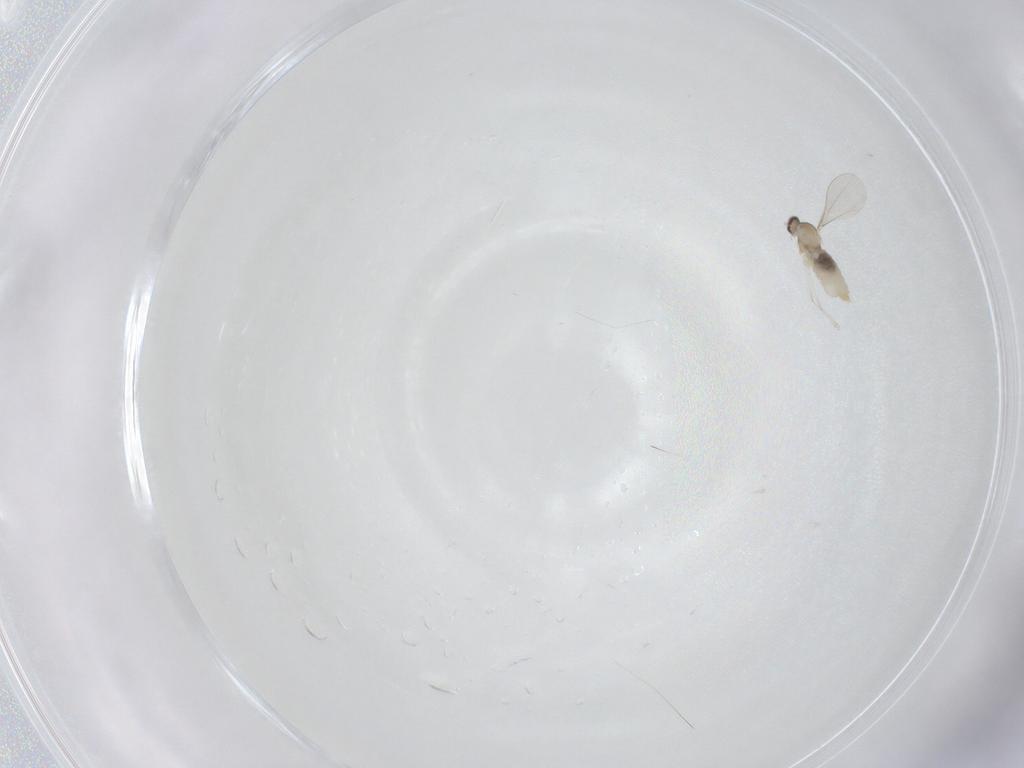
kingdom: Animalia
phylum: Arthropoda
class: Insecta
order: Diptera
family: Cecidomyiidae
